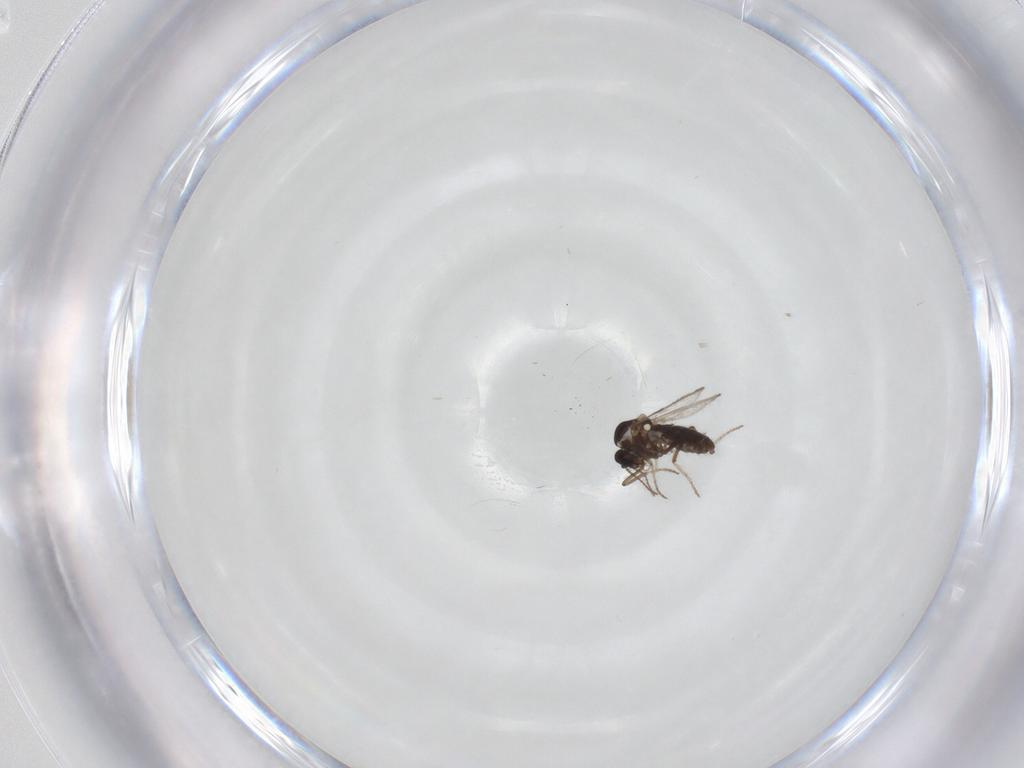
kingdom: Animalia
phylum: Arthropoda
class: Insecta
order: Diptera
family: Ceratopogonidae
